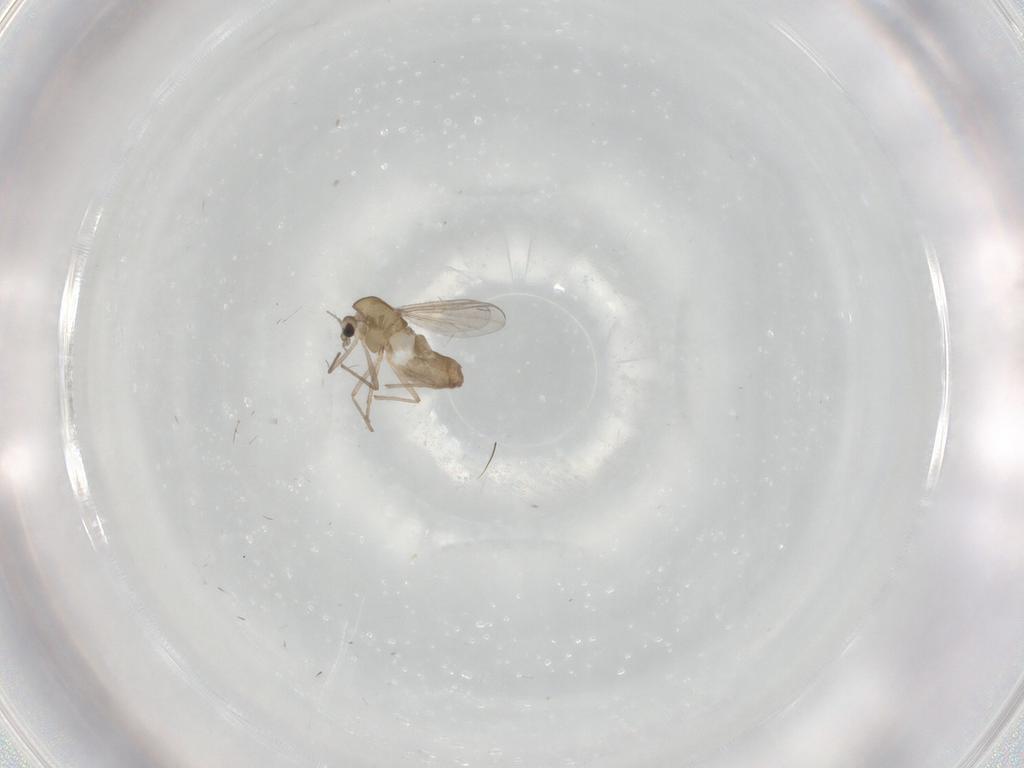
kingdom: Animalia
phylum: Arthropoda
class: Insecta
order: Diptera
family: Chironomidae
